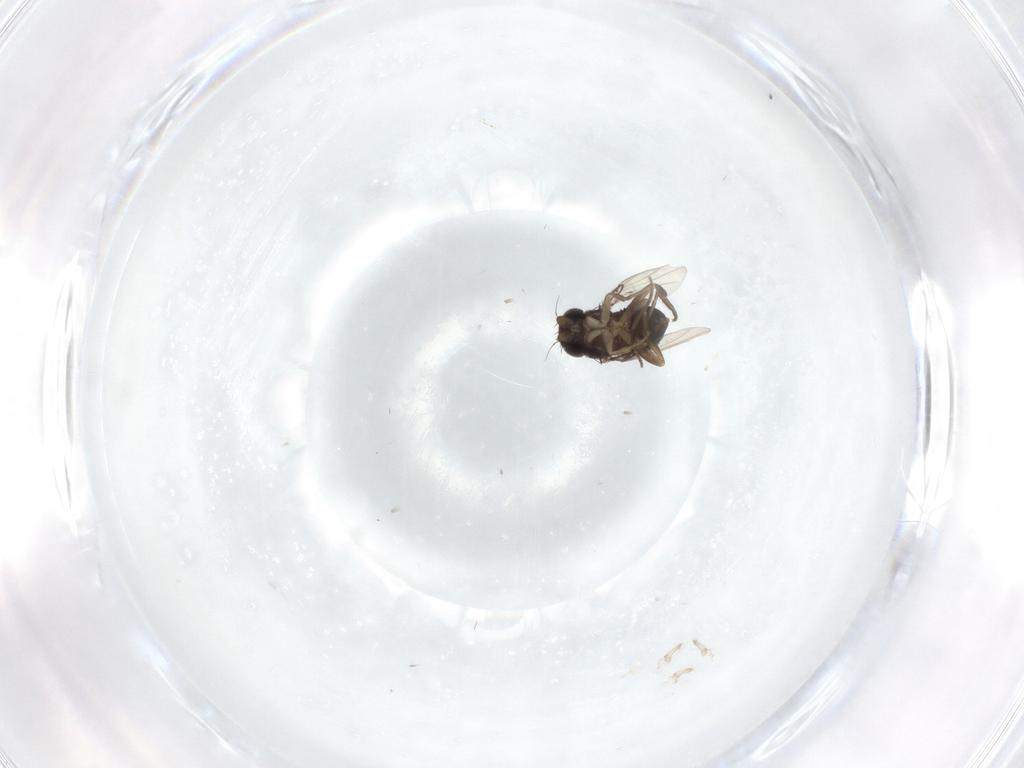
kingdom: Animalia
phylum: Arthropoda
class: Insecta
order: Diptera
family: Phoridae
